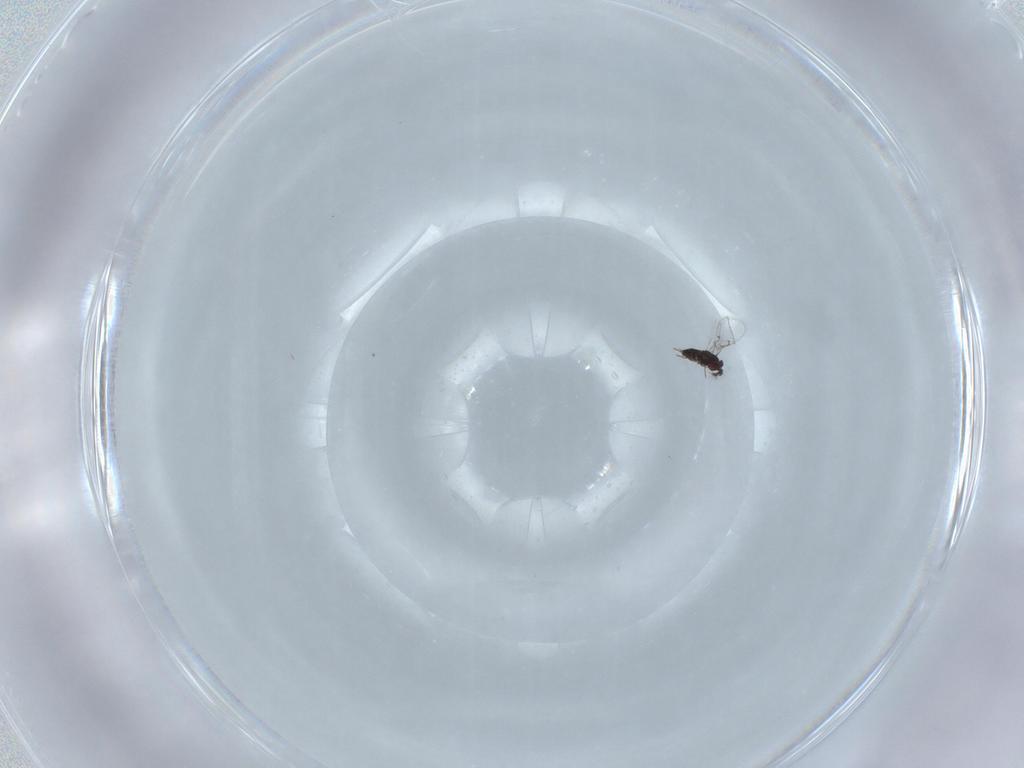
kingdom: Animalia
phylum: Arthropoda
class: Insecta
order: Hymenoptera
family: Trichogrammatidae
